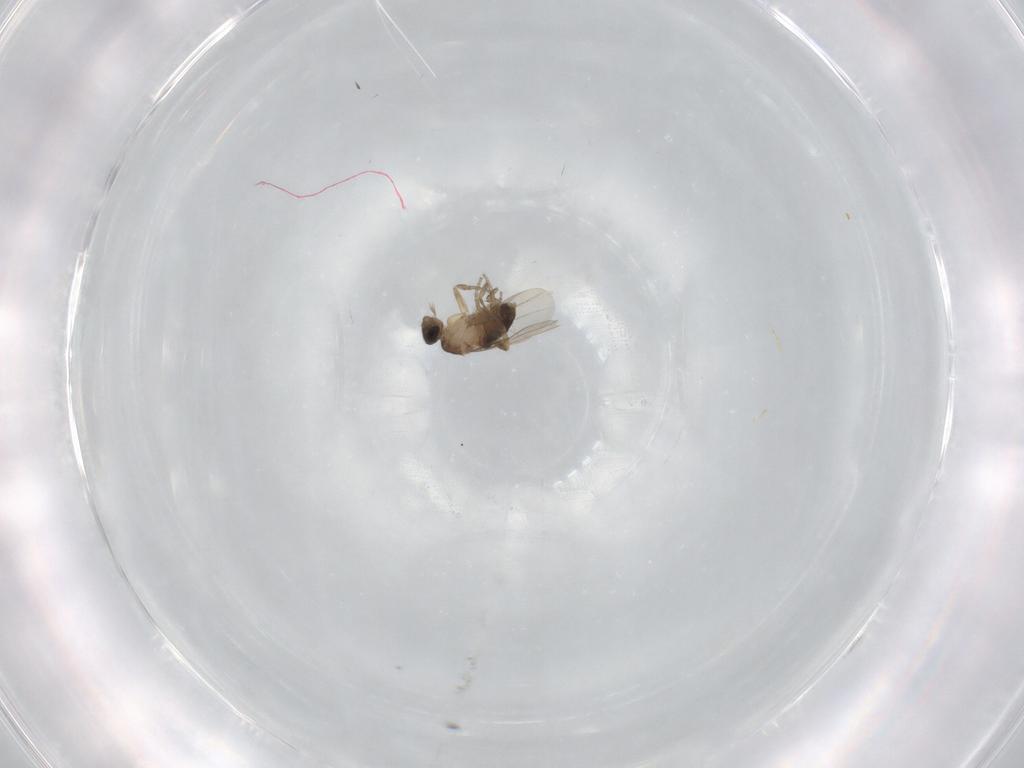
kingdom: Animalia
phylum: Arthropoda
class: Insecta
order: Diptera
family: Phoridae
